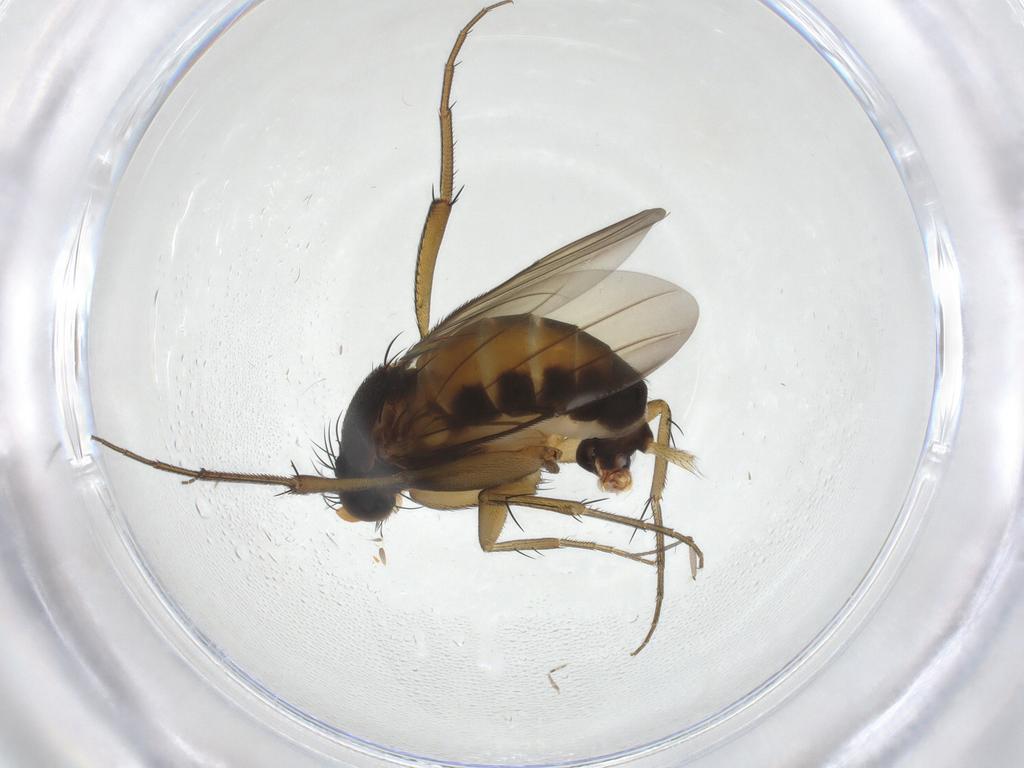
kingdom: Animalia
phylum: Arthropoda
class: Insecta
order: Diptera
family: Phoridae
